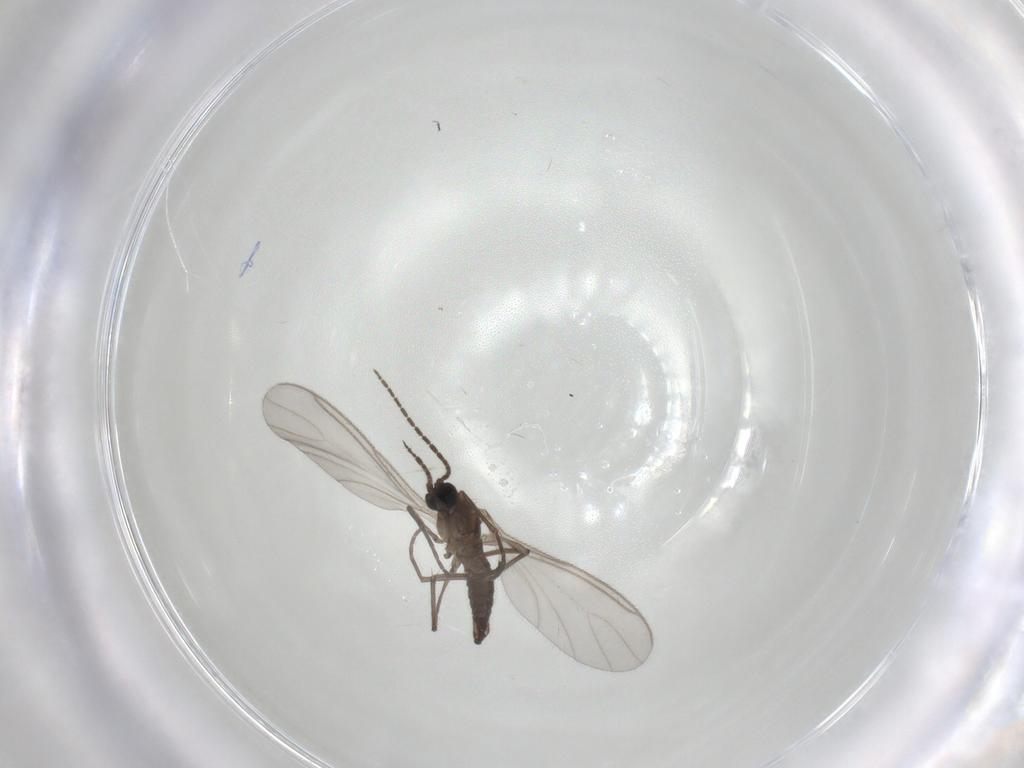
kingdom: Animalia
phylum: Arthropoda
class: Insecta
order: Diptera
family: Sciaridae
